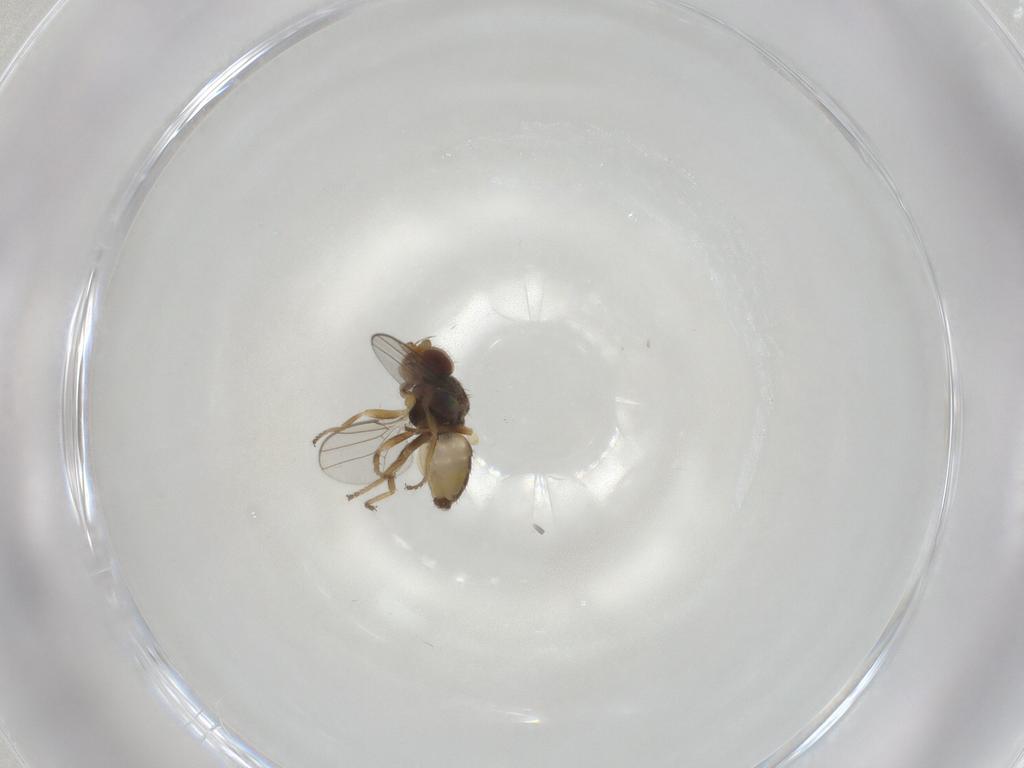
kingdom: Animalia
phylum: Arthropoda
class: Insecta
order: Diptera
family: Chloropidae
